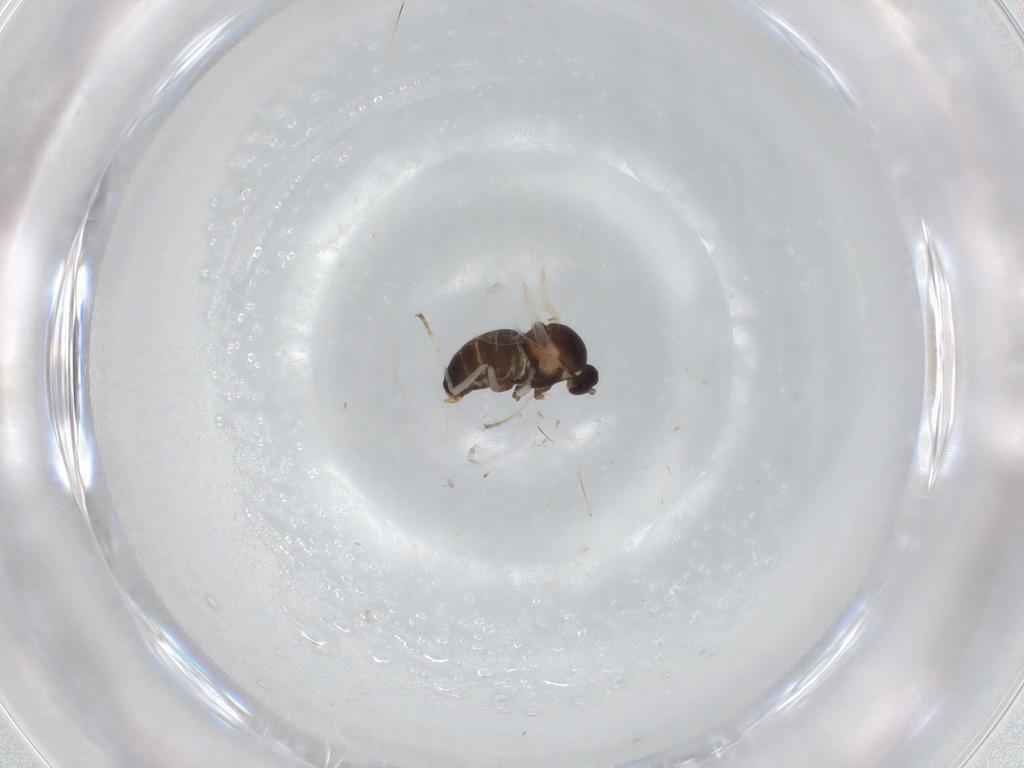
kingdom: Animalia
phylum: Arthropoda
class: Insecta
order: Diptera
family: Cecidomyiidae
